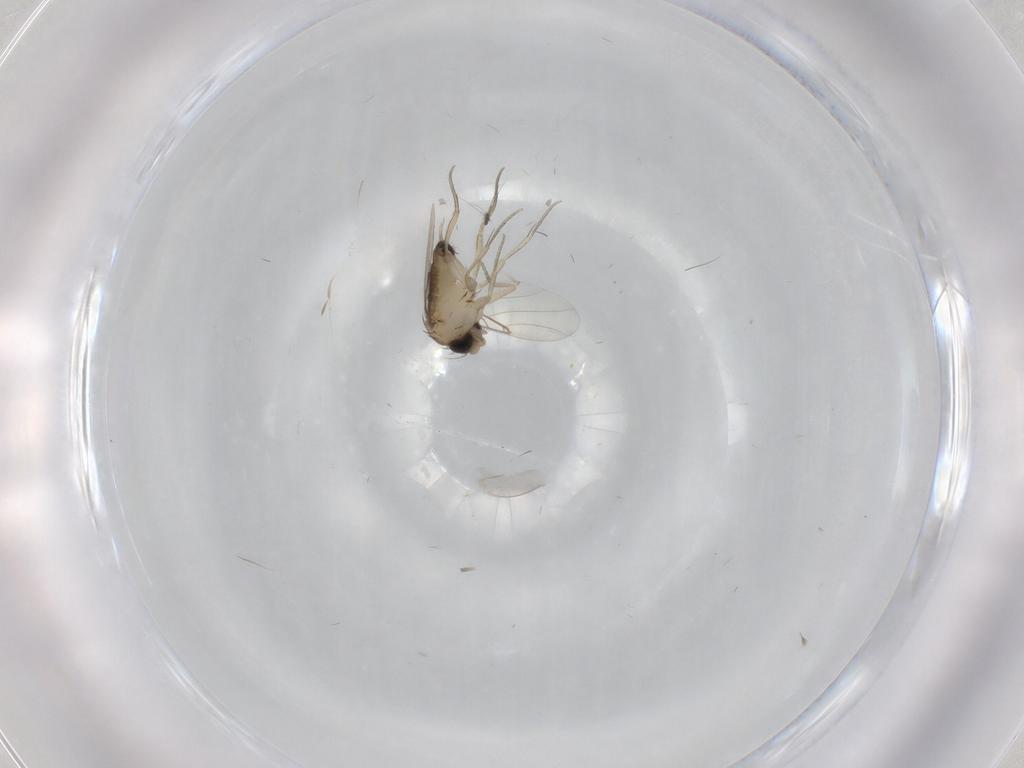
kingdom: Animalia
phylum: Arthropoda
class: Insecta
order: Diptera
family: Phoridae
